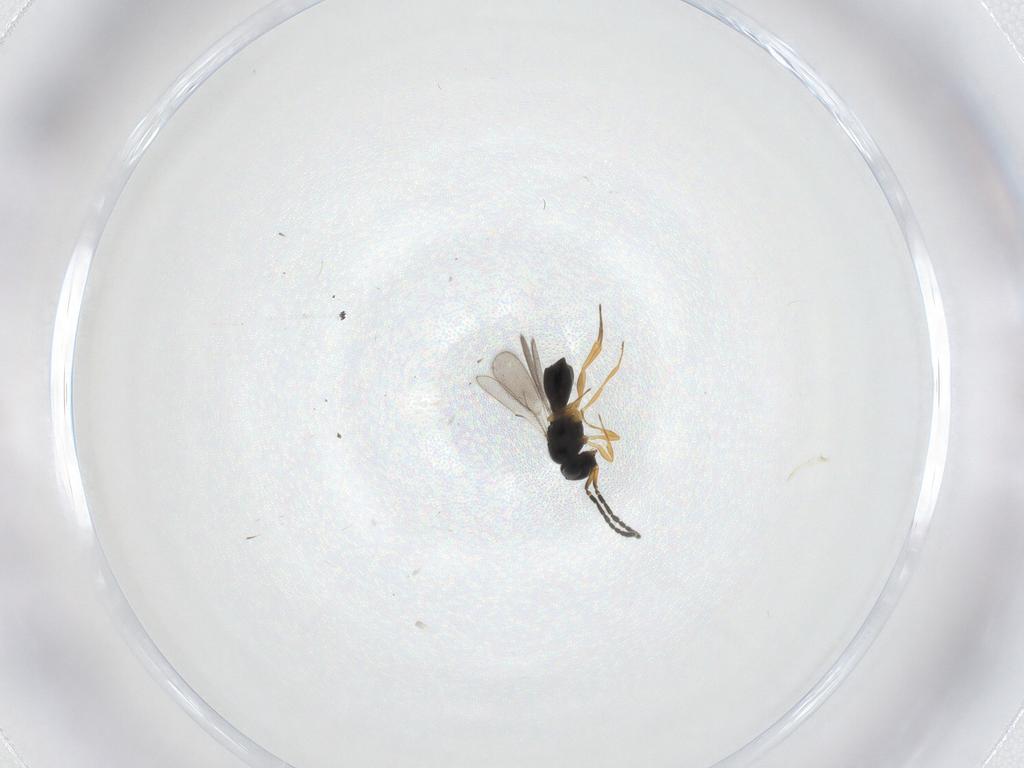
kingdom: Animalia
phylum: Arthropoda
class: Insecta
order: Hymenoptera
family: Scelionidae
